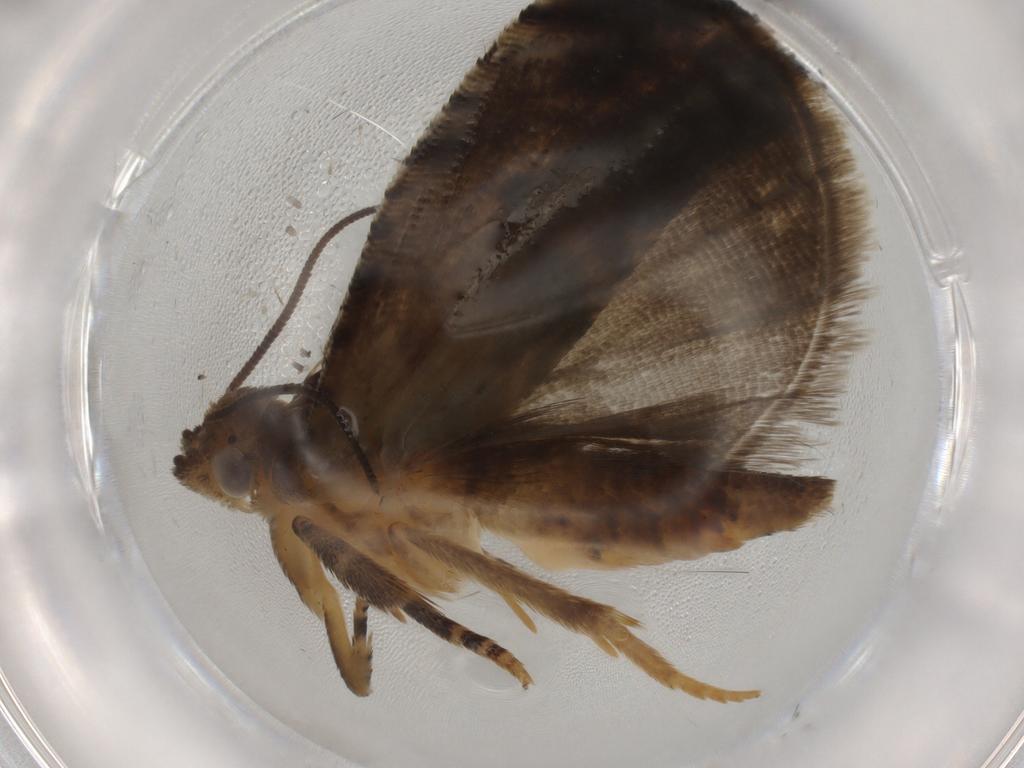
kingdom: Animalia
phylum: Arthropoda
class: Insecta
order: Lepidoptera
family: Tortricidae
